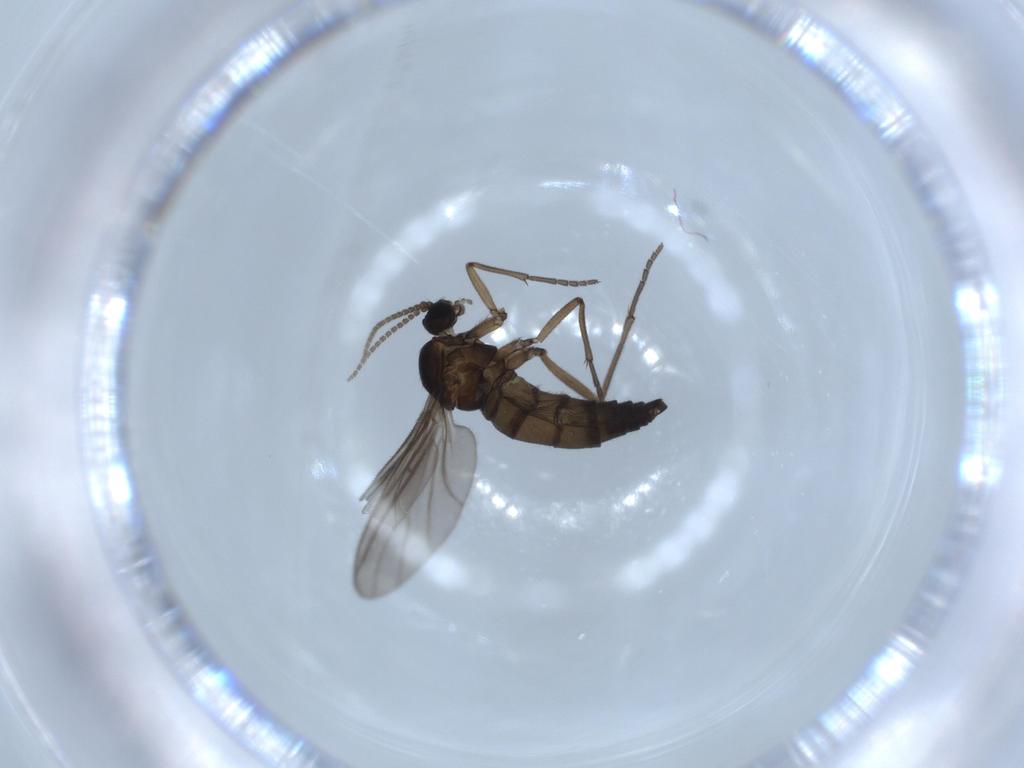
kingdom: Animalia
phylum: Arthropoda
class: Insecta
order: Diptera
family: Sciaridae
